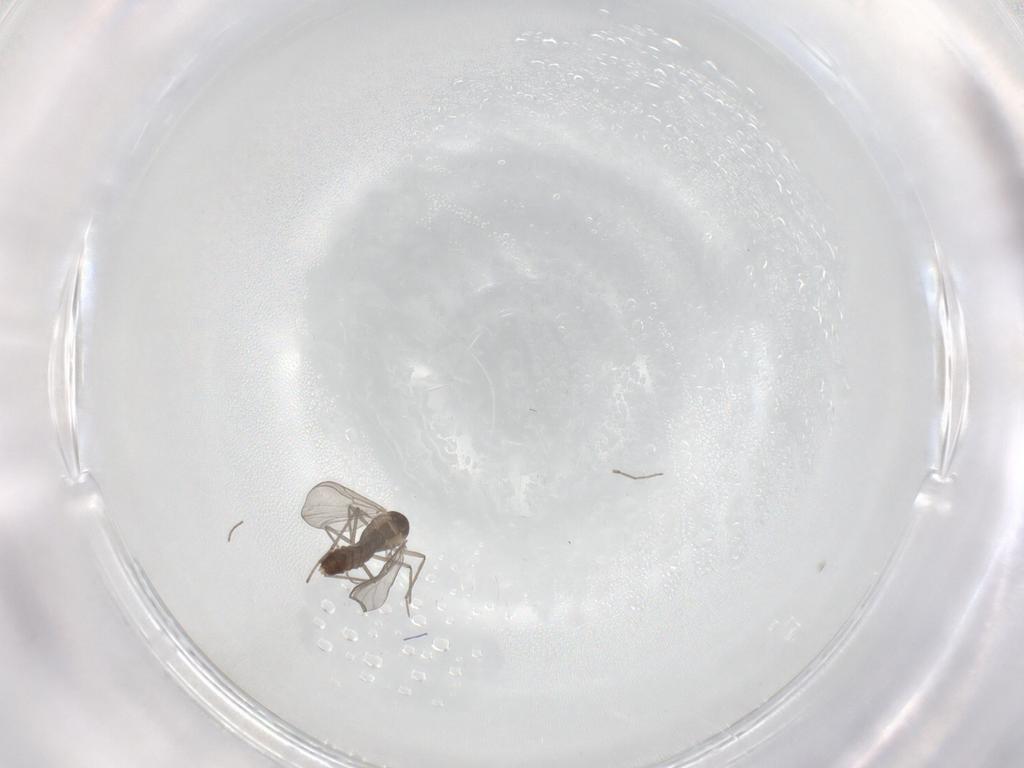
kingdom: Animalia
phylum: Arthropoda
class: Insecta
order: Diptera
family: Chironomidae
